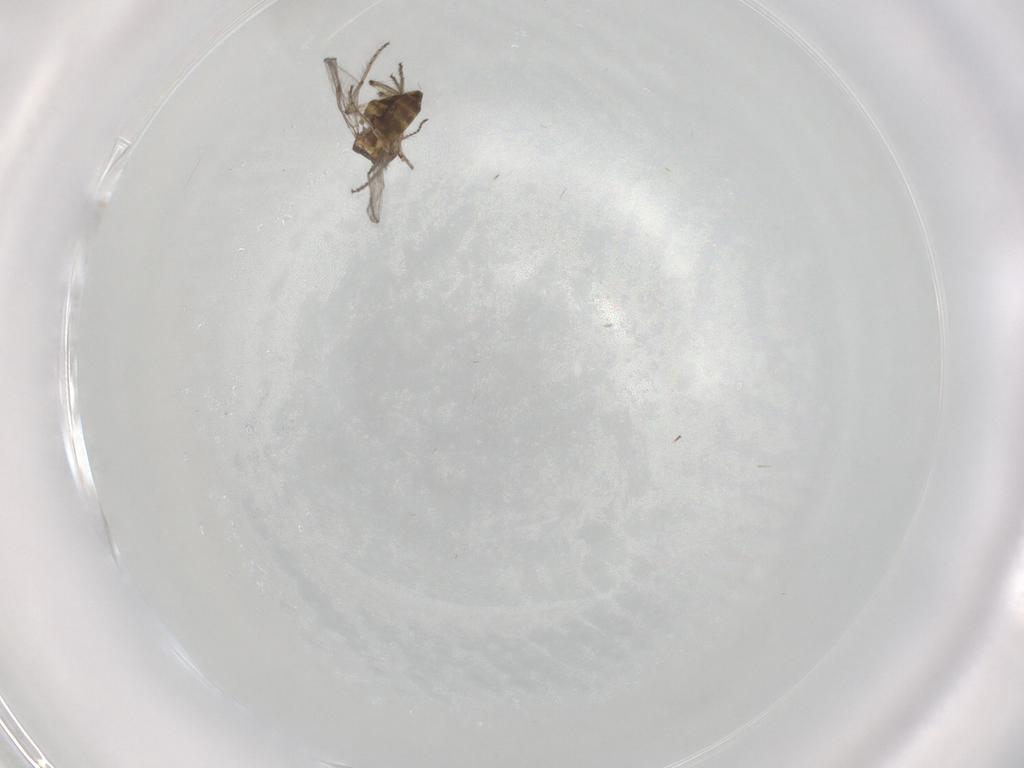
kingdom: Animalia
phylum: Arthropoda
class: Insecta
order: Diptera
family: Ceratopogonidae
